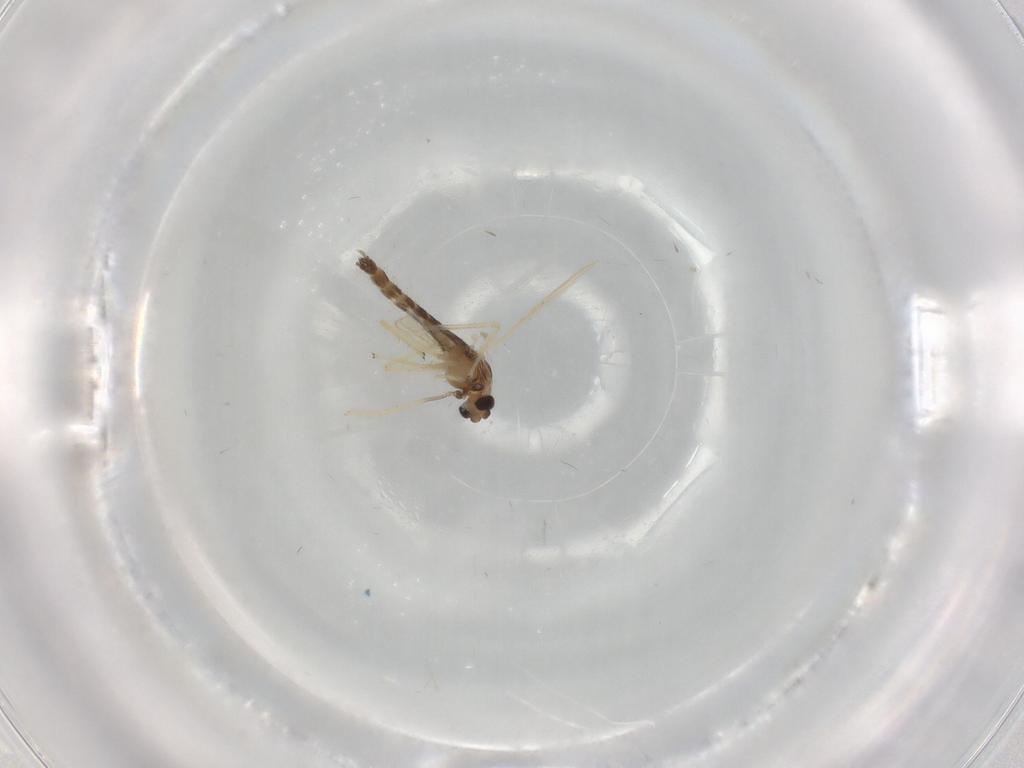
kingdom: Animalia
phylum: Arthropoda
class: Insecta
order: Diptera
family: Chironomidae
